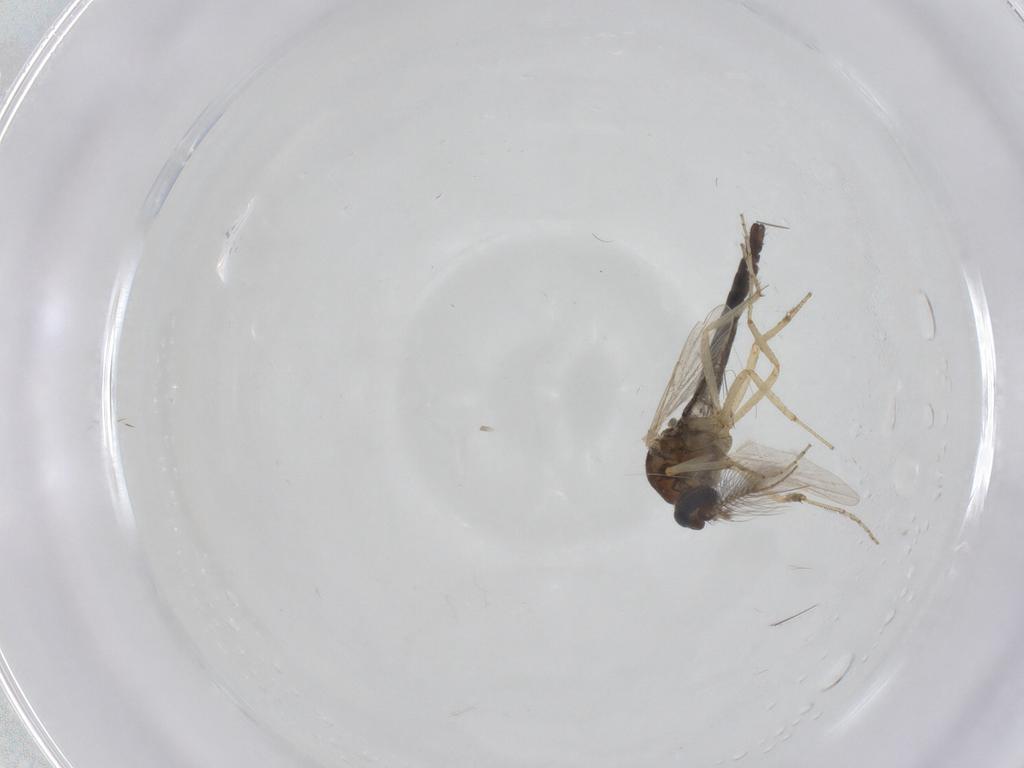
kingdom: Animalia
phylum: Arthropoda
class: Insecta
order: Diptera
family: Ceratopogonidae
